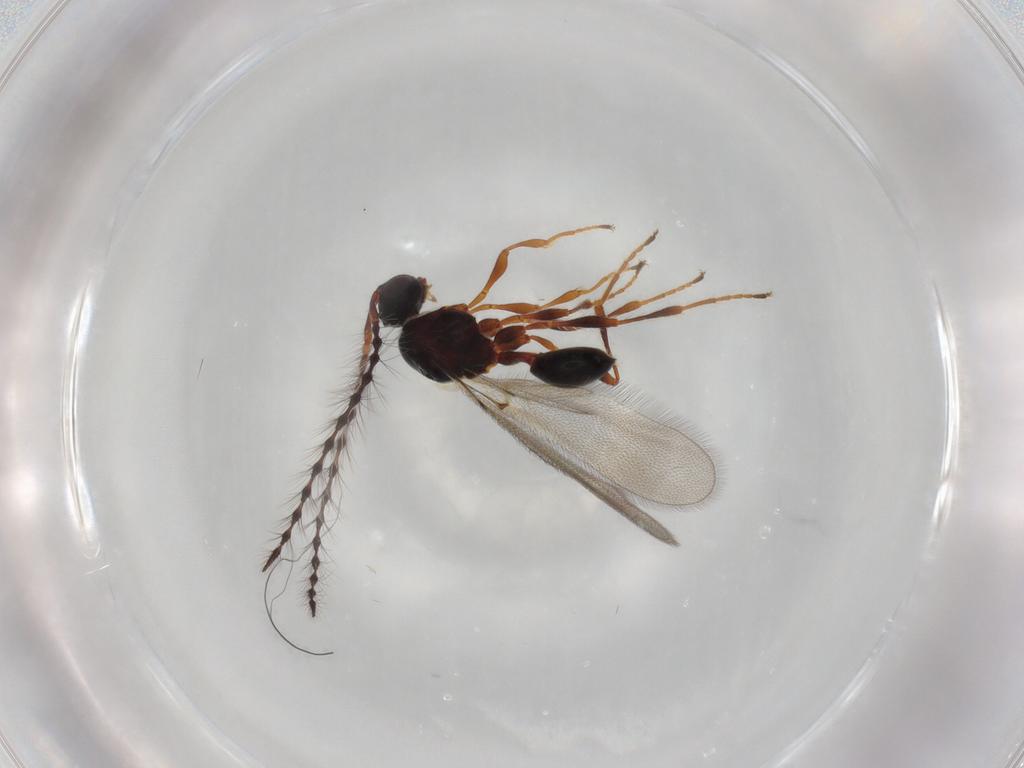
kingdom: Animalia
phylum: Arthropoda
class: Insecta
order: Hymenoptera
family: Diapriidae
